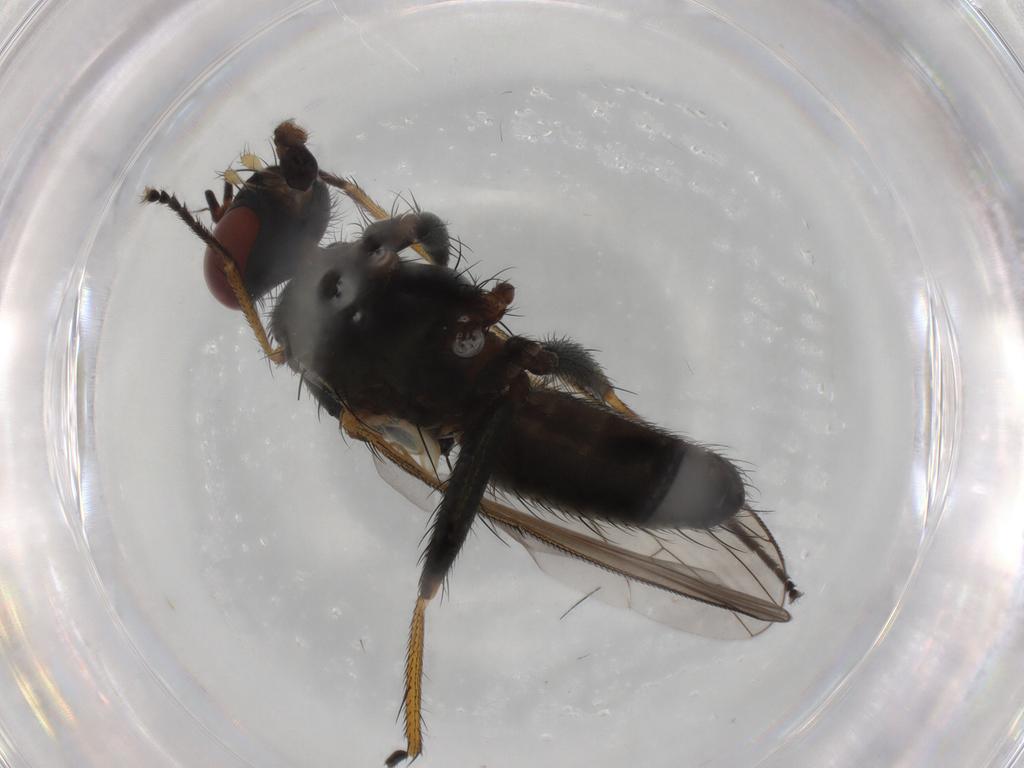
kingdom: Animalia
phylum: Arthropoda
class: Insecta
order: Diptera
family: Muscidae
